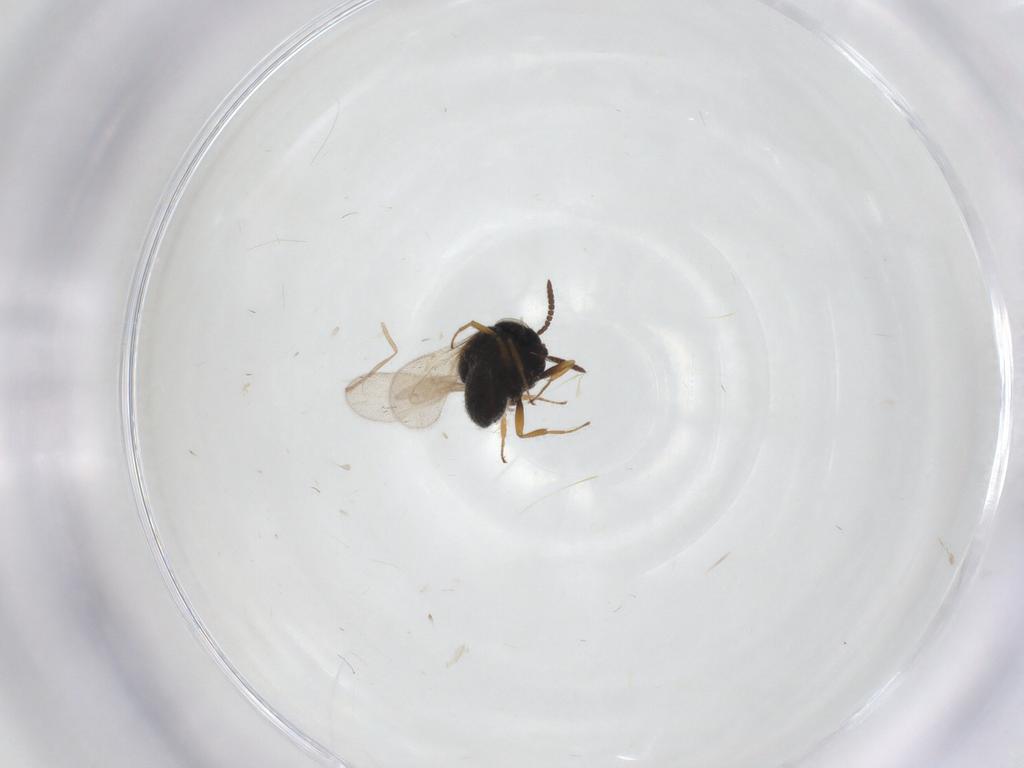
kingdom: Animalia
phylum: Arthropoda
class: Insecta
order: Hymenoptera
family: Scelionidae
